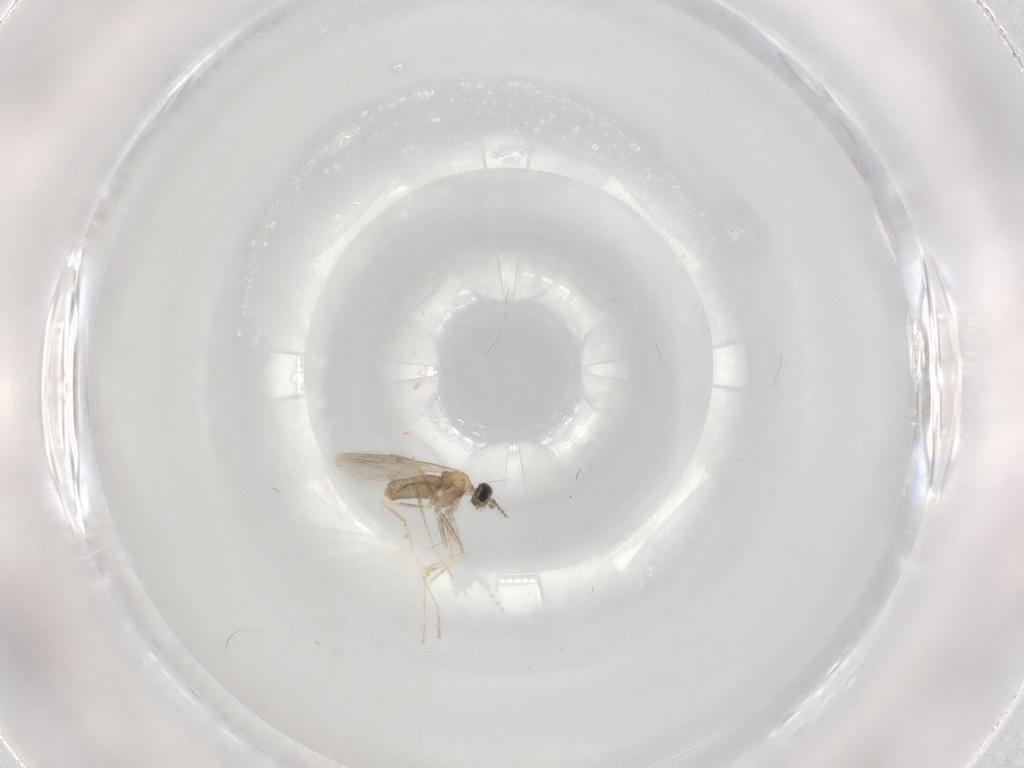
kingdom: Animalia
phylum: Arthropoda
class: Insecta
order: Diptera
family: Cecidomyiidae
